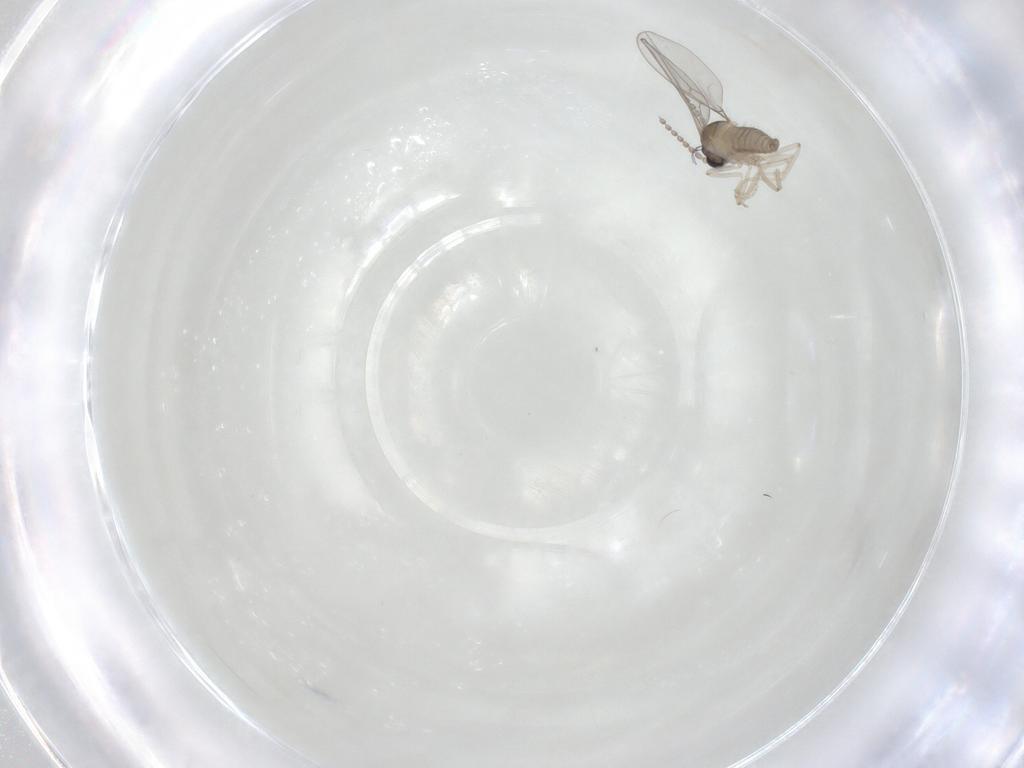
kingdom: Animalia
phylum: Arthropoda
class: Insecta
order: Diptera
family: Cecidomyiidae
